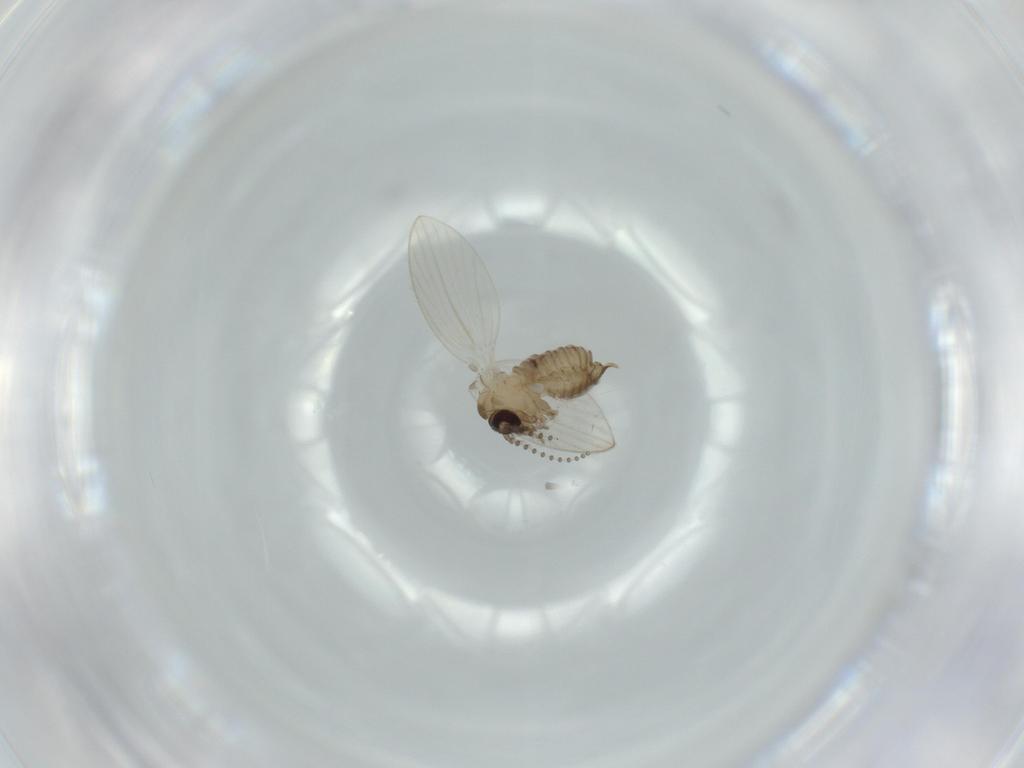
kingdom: Animalia
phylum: Arthropoda
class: Insecta
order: Diptera
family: Psychodidae
